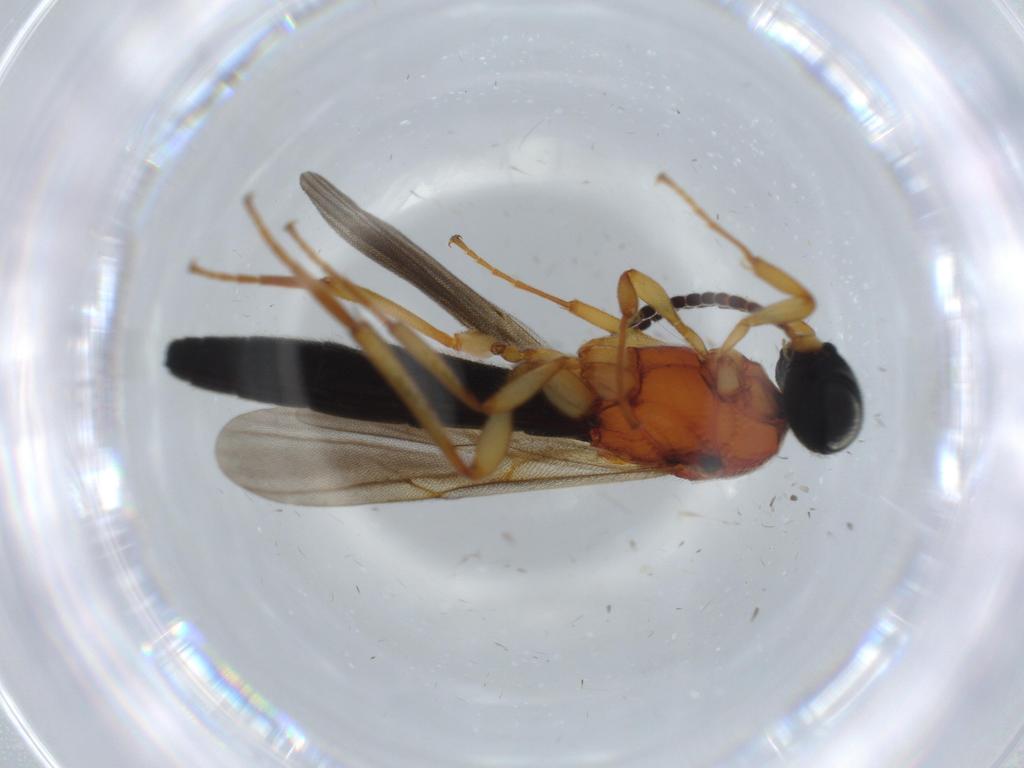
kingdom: Animalia
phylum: Arthropoda
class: Insecta
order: Hymenoptera
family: Scelionidae
